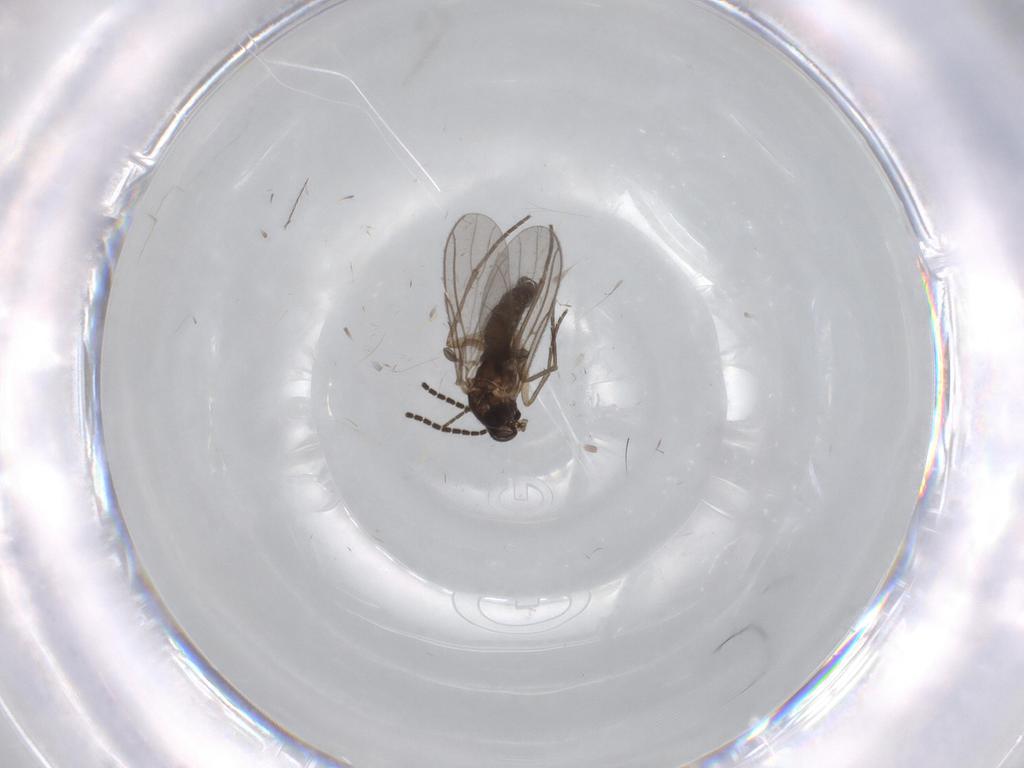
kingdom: Animalia
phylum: Arthropoda
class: Insecta
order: Diptera
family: Sciaridae
